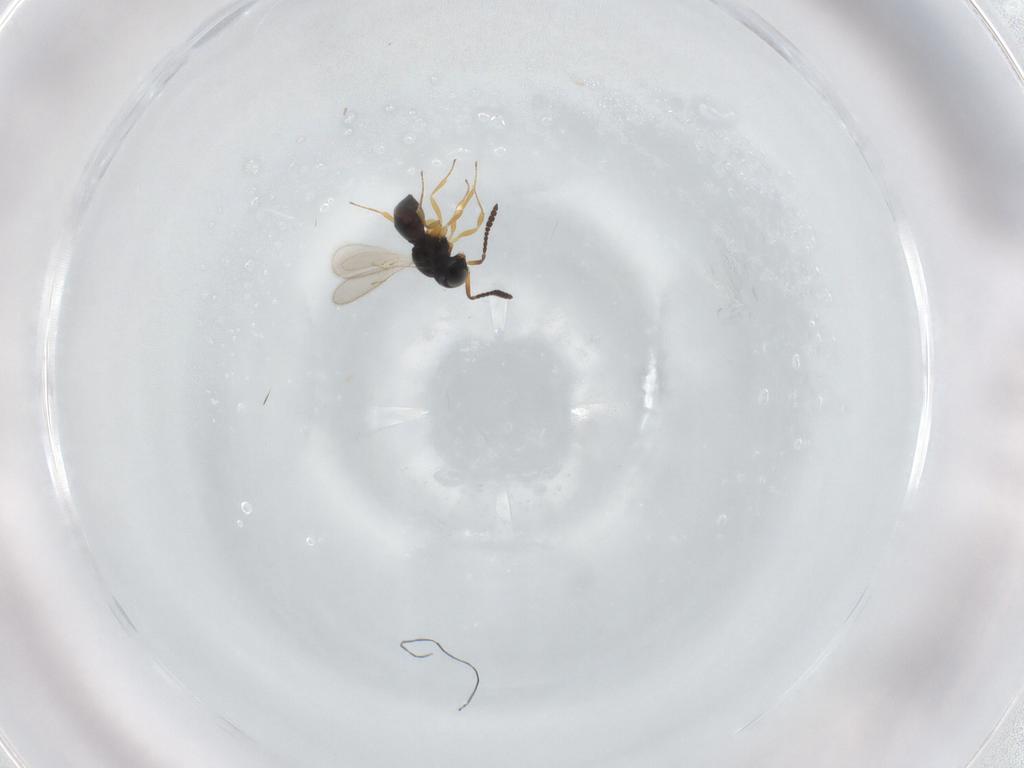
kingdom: Animalia
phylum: Arthropoda
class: Insecta
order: Hymenoptera
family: Scelionidae
